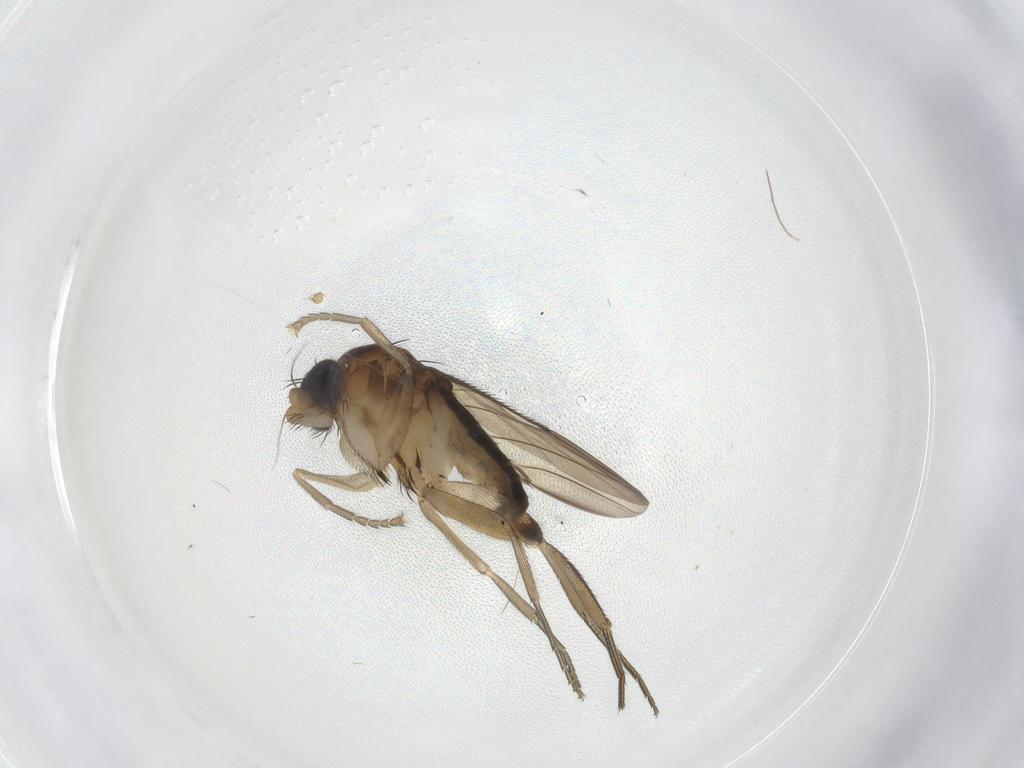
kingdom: Animalia
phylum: Arthropoda
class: Insecta
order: Diptera
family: Phoridae
